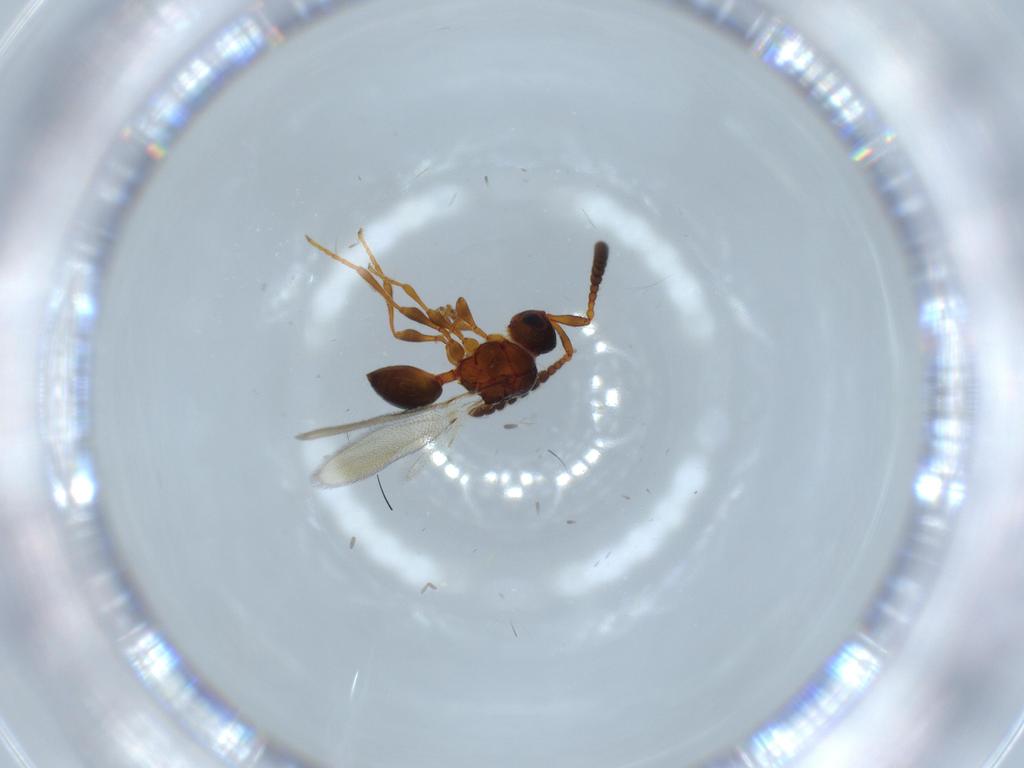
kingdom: Animalia
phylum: Arthropoda
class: Insecta
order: Hymenoptera
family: Diapriidae
